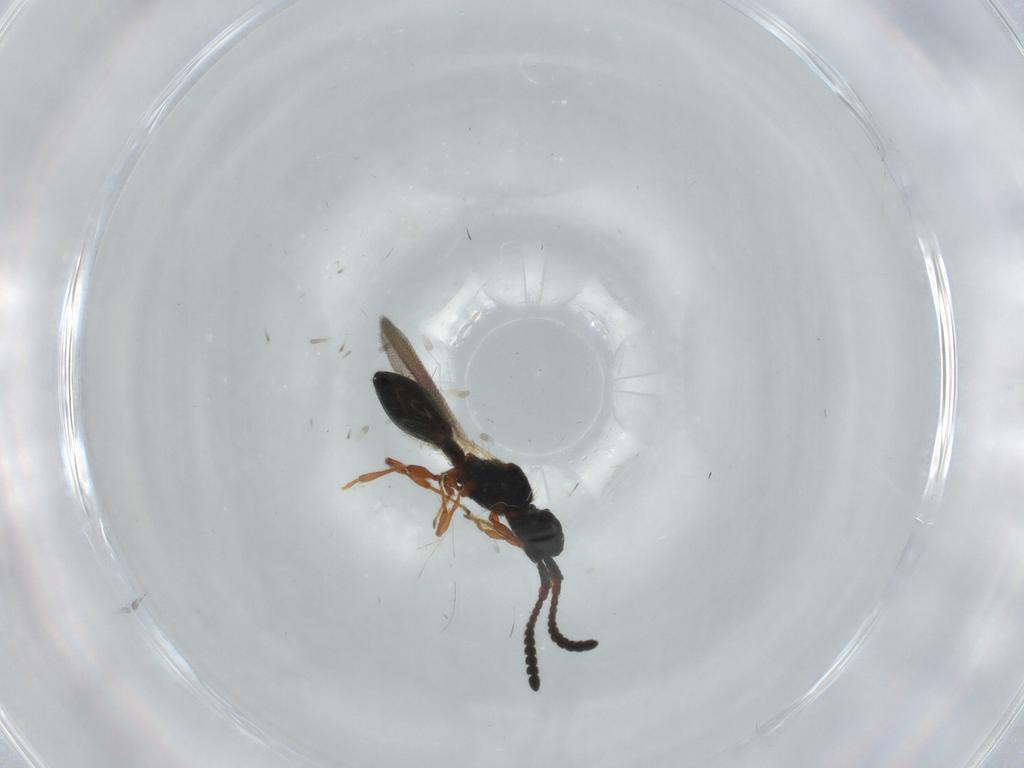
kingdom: Animalia
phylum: Arthropoda
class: Insecta
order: Hymenoptera
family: Diapriidae
